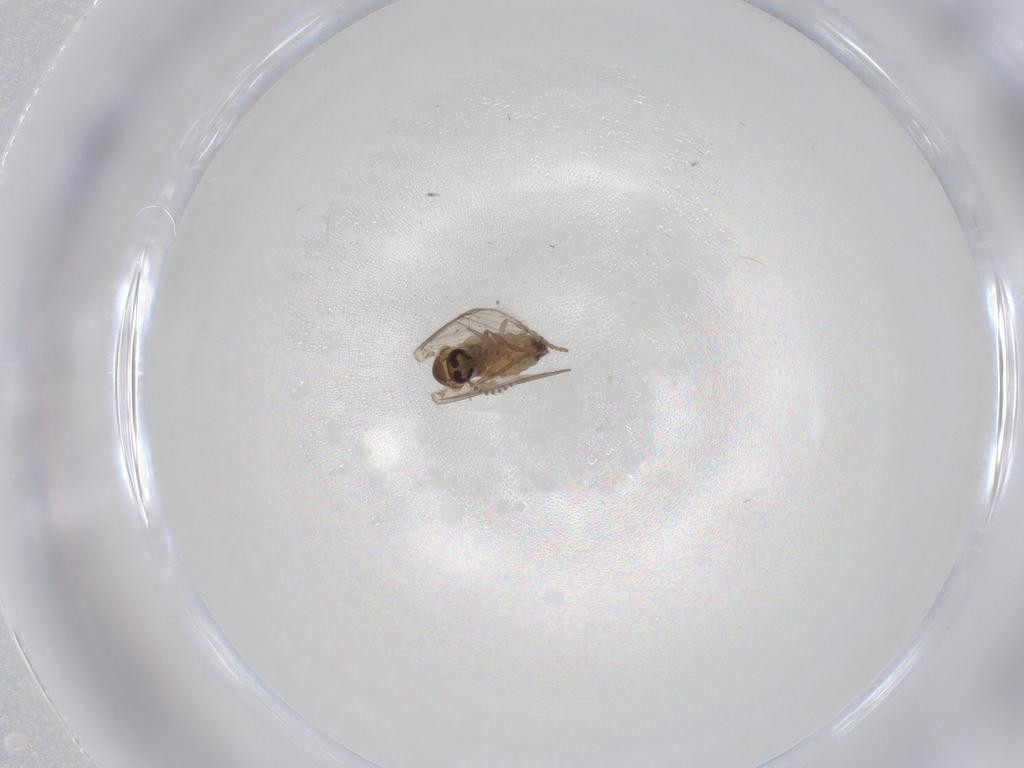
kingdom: Animalia
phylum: Arthropoda
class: Insecta
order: Diptera
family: Psychodidae
